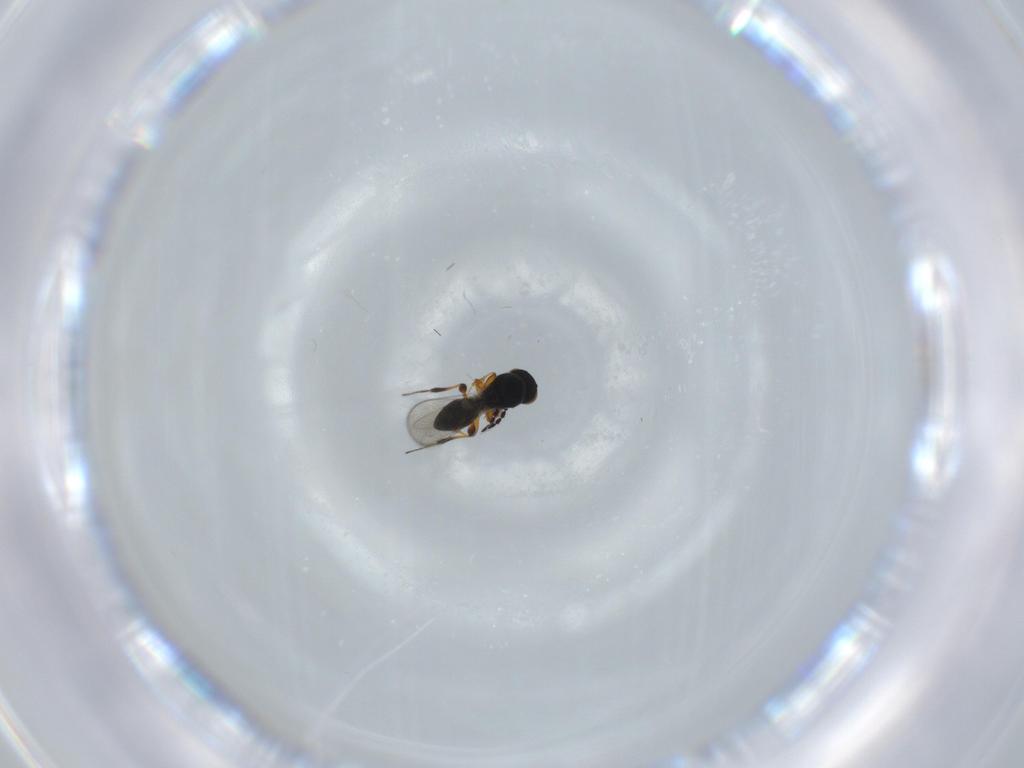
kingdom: Animalia
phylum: Arthropoda
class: Insecta
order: Hymenoptera
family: Platygastridae
